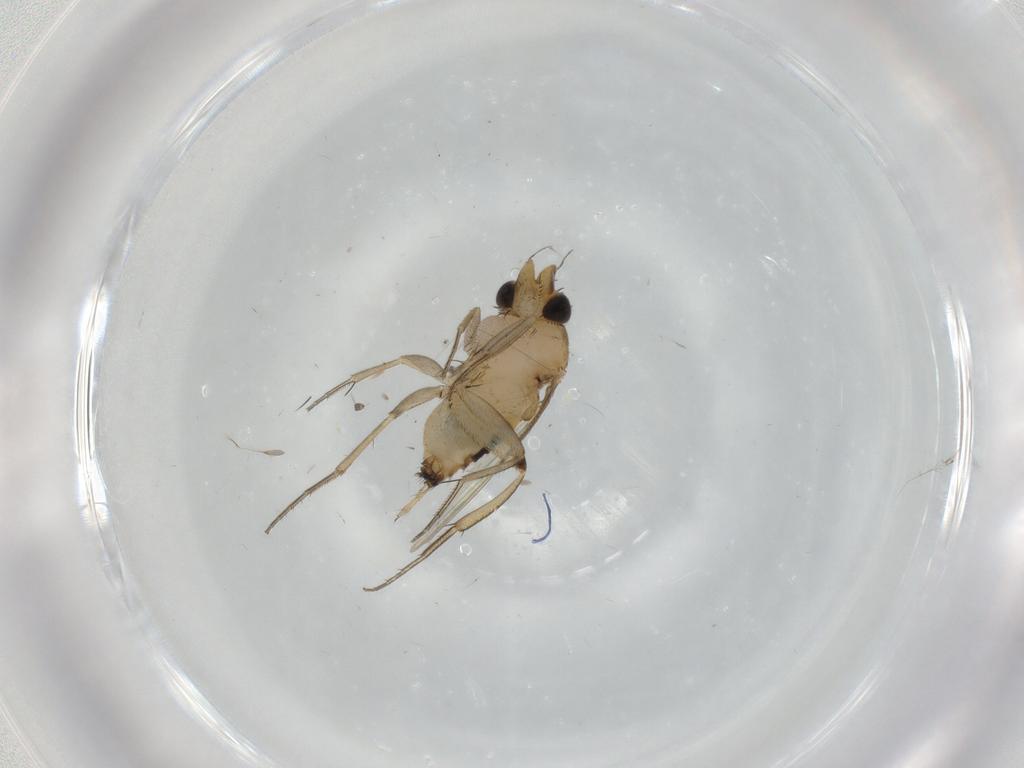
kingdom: Animalia
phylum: Arthropoda
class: Insecta
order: Diptera
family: Phoridae
